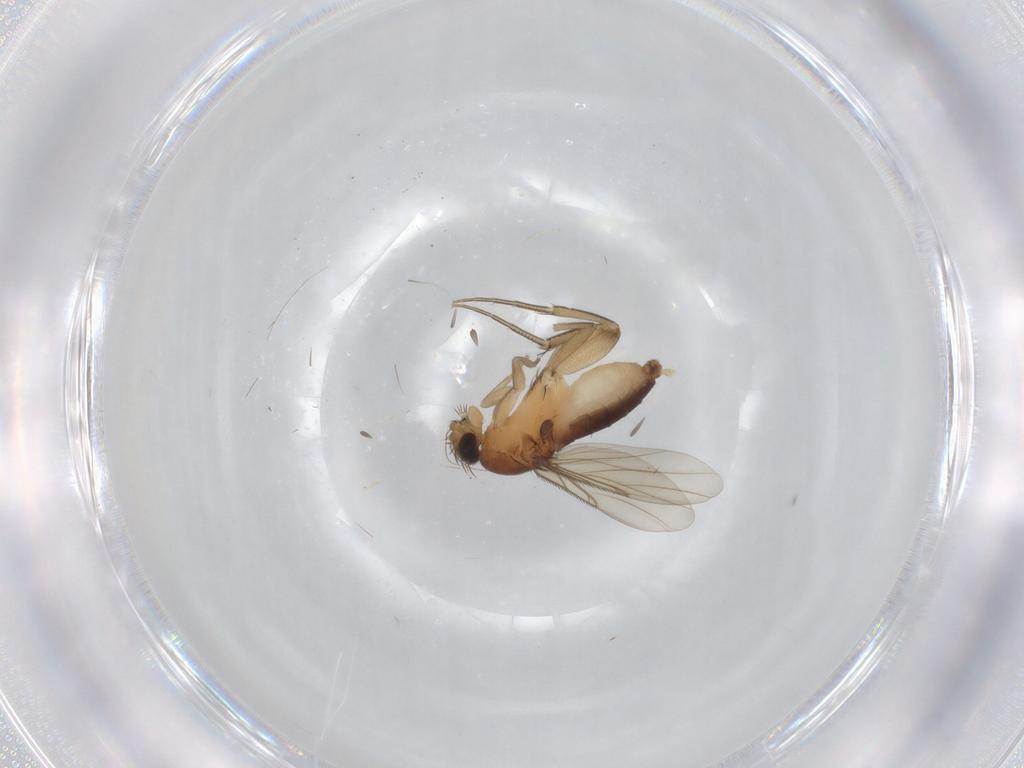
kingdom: Animalia
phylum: Arthropoda
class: Insecta
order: Diptera
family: Phoridae
